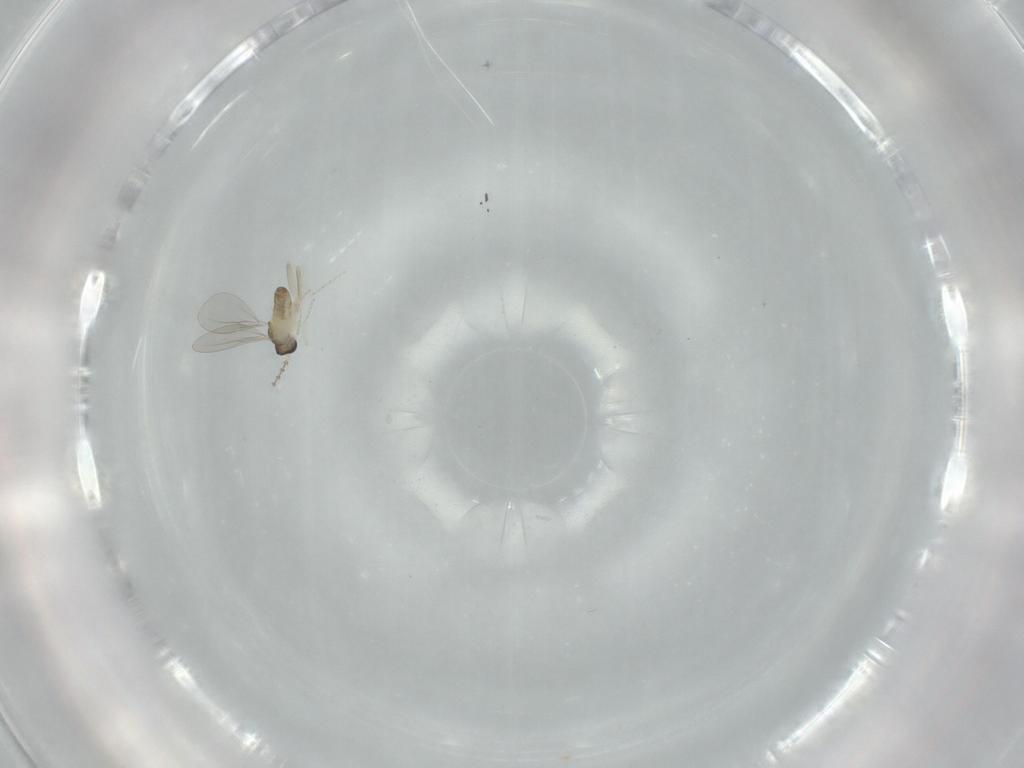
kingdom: Animalia
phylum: Arthropoda
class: Insecta
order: Diptera
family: Cecidomyiidae
